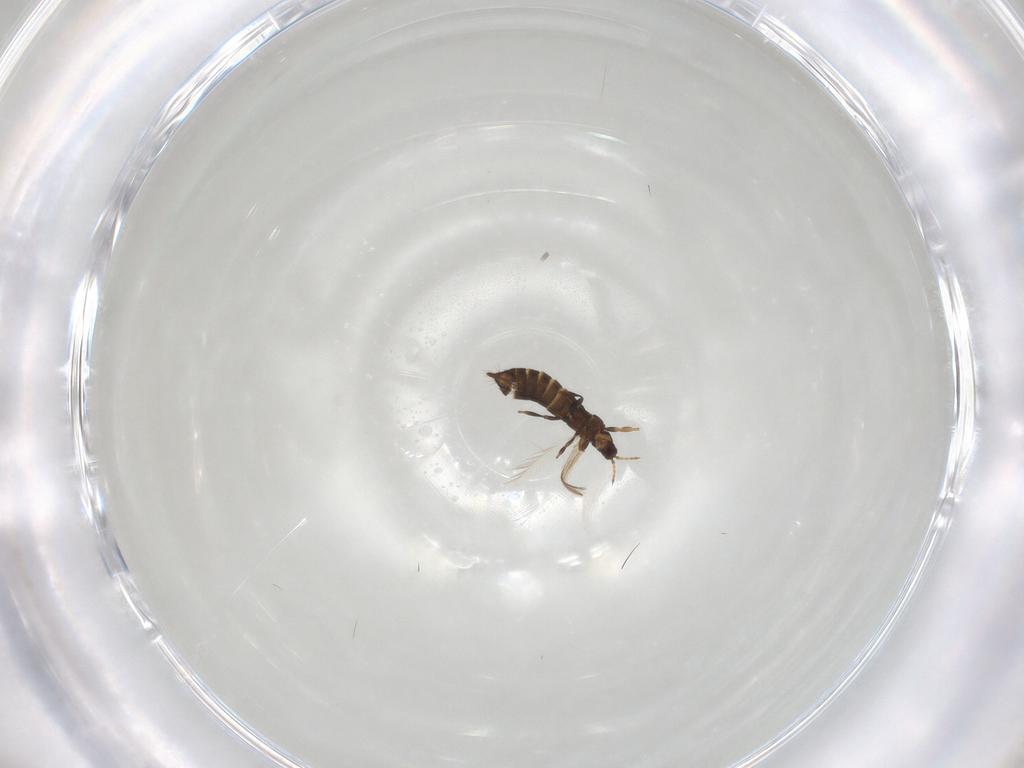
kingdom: Animalia
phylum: Arthropoda
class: Insecta
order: Thysanoptera
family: Thripidae
